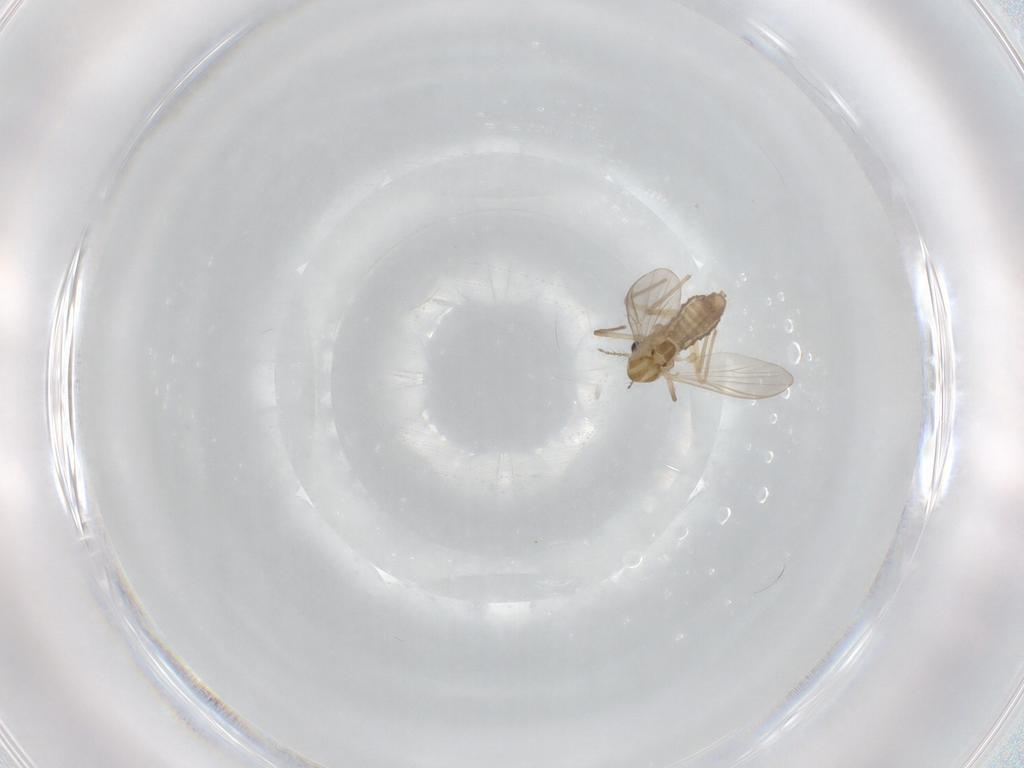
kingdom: Animalia
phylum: Arthropoda
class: Insecta
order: Diptera
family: Chironomidae
